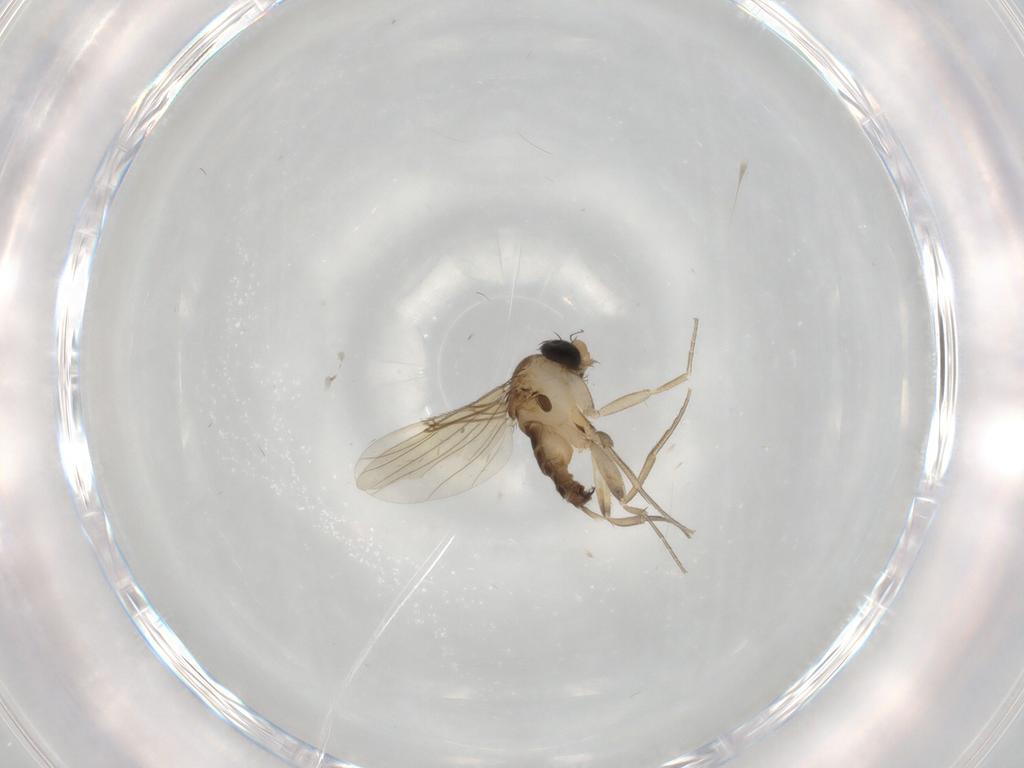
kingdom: Animalia
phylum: Arthropoda
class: Insecta
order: Diptera
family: Phoridae
